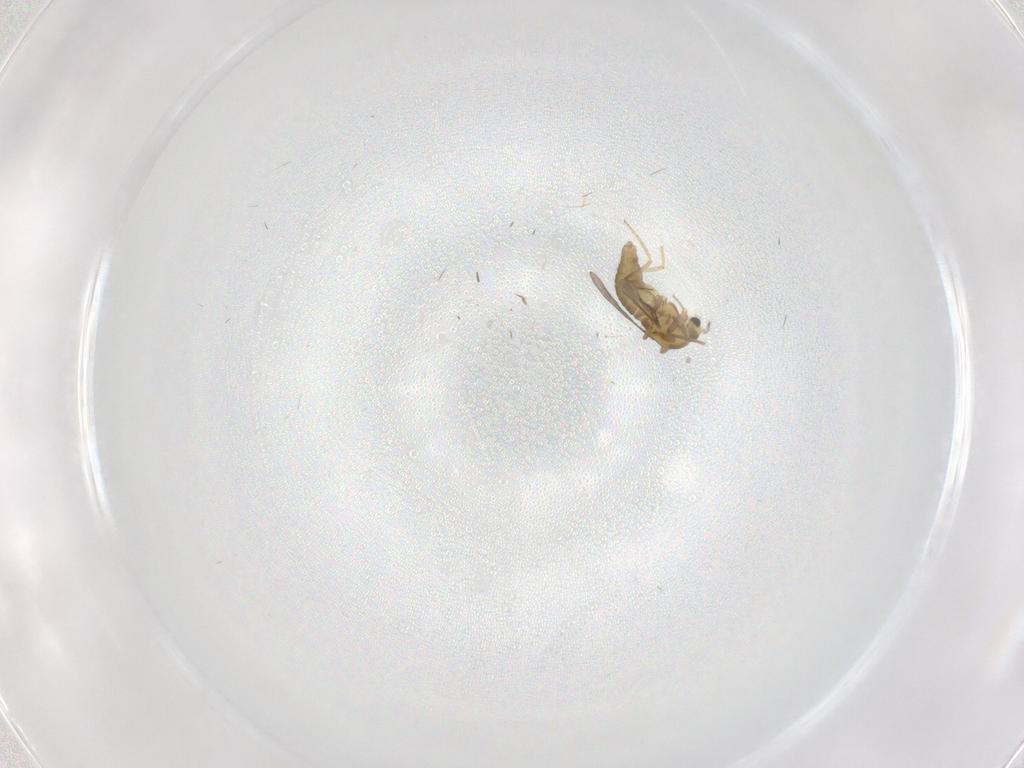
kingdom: Animalia
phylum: Arthropoda
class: Insecta
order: Diptera
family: Chironomidae
